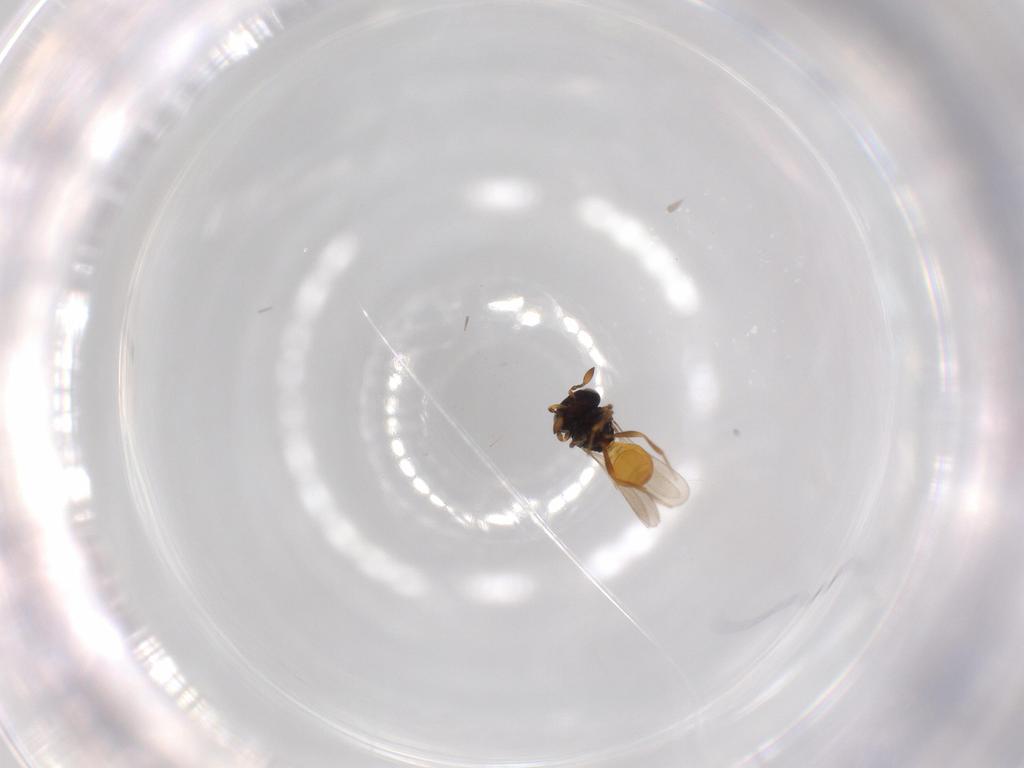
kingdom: Animalia
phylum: Arthropoda
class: Insecta
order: Hymenoptera
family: Scelionidae
